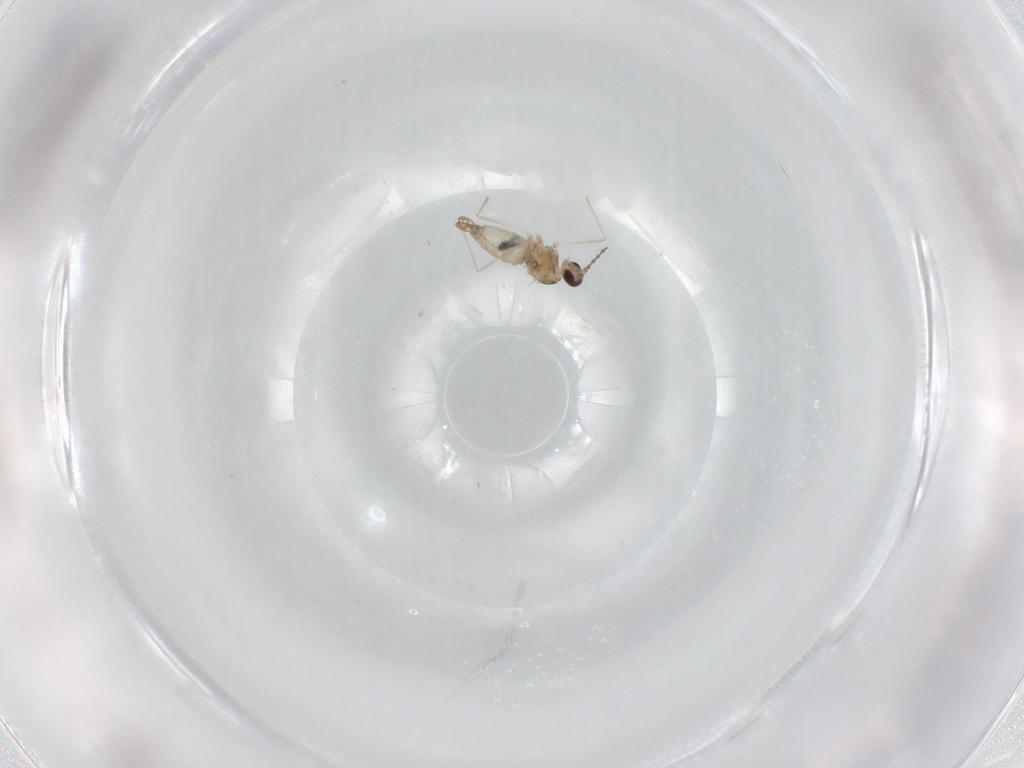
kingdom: Animalia
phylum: Arthropoda
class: Insecta
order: Diptera
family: Cecidomyiidae
